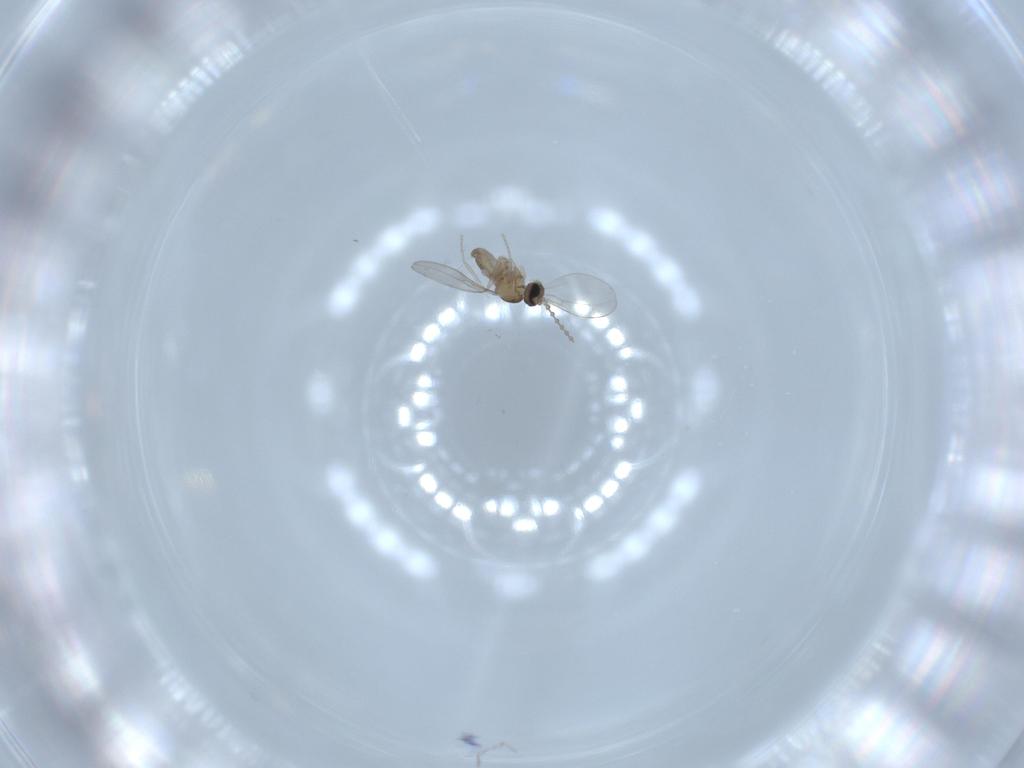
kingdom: Animalia
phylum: Arthropoda
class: Insecta
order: Diptera
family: Cecidomyiidae
